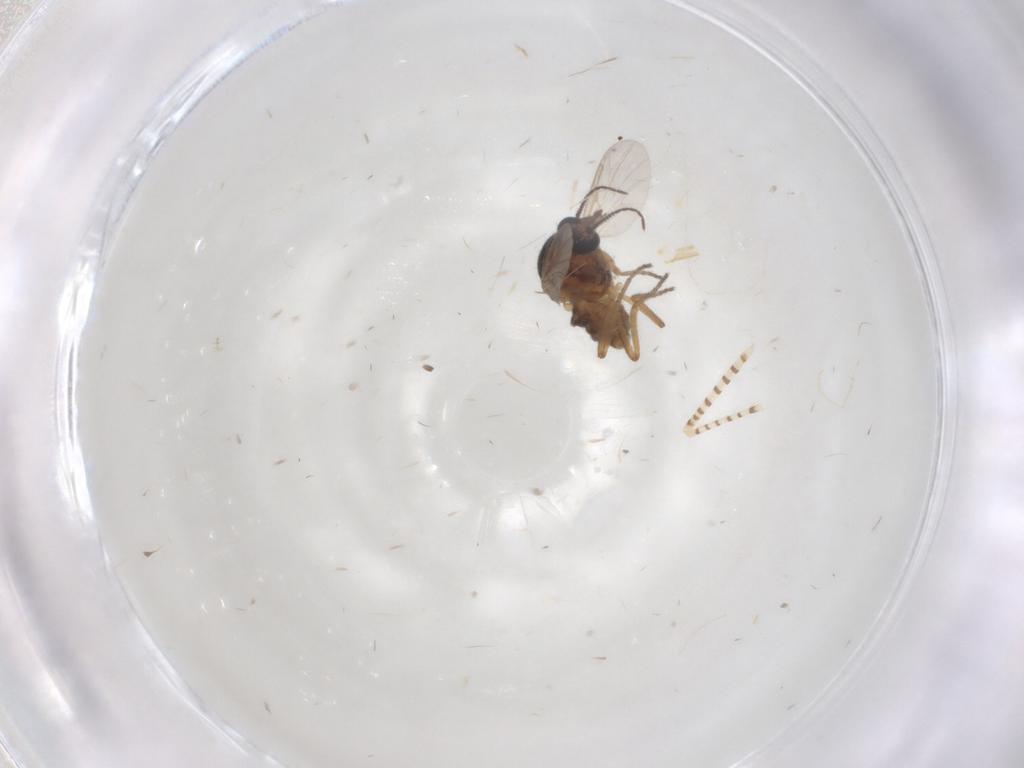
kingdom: Animalia
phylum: Arthropoda
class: Insecta
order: Diptera
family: Ceratopogonidae
